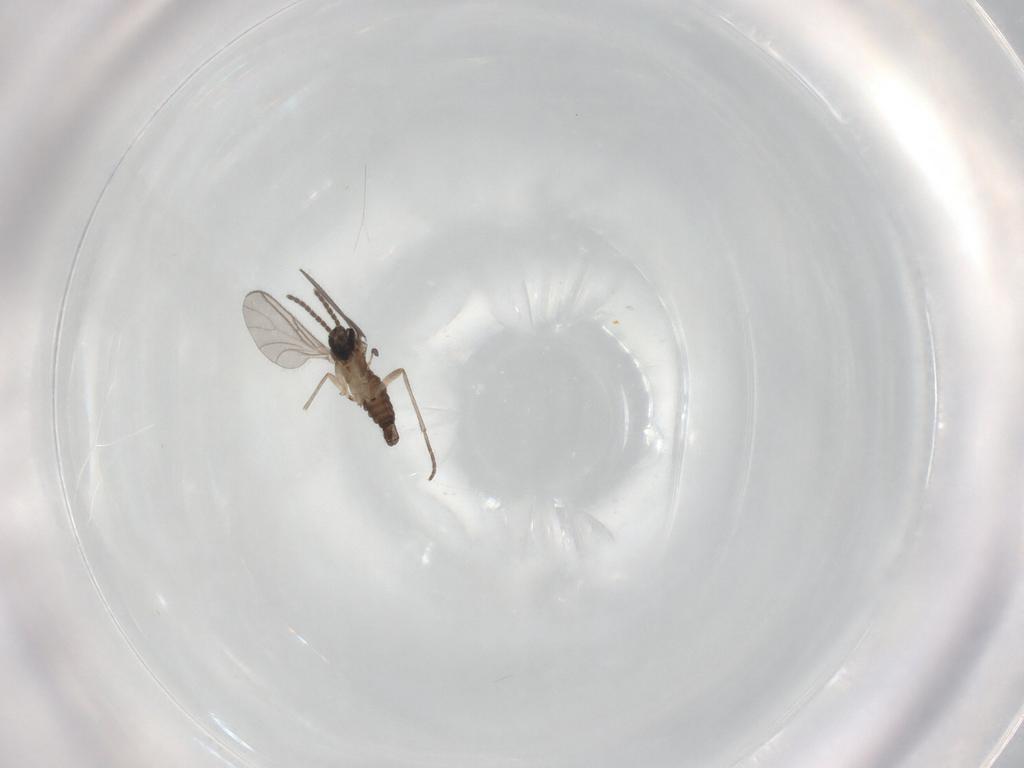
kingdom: Animalia
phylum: Arthropoda
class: Insecta
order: Diptera
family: Sciaridae
